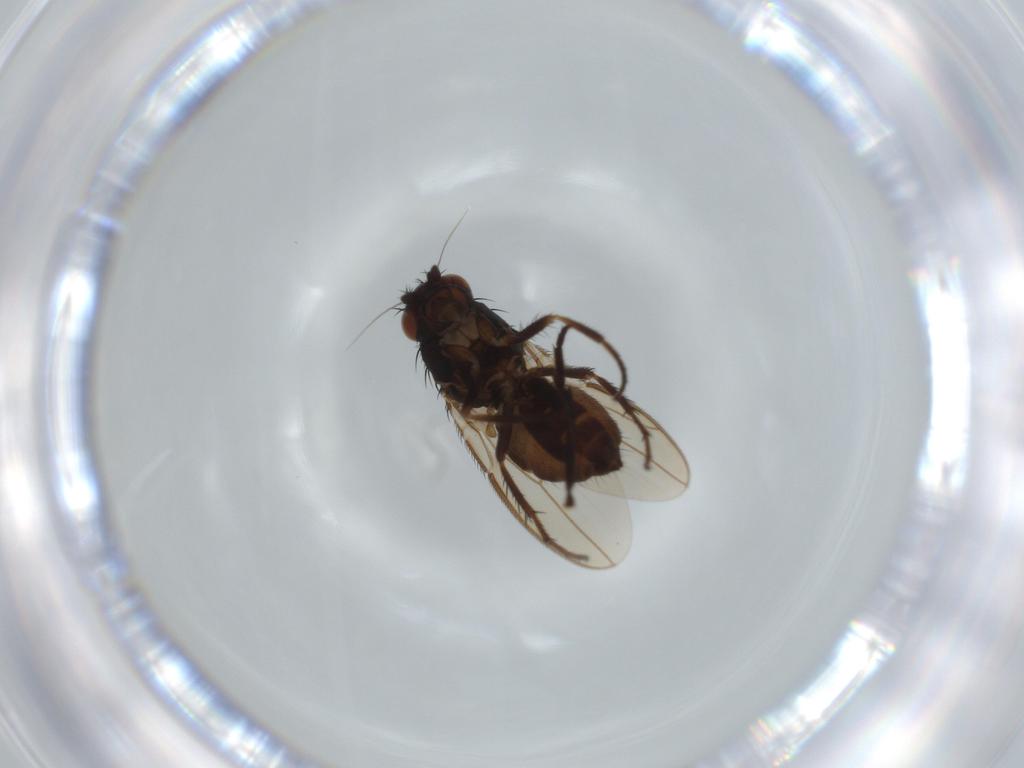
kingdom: Animalia
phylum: Arthropoda
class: Insecta
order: Diptera
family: Sphaeroceridae
